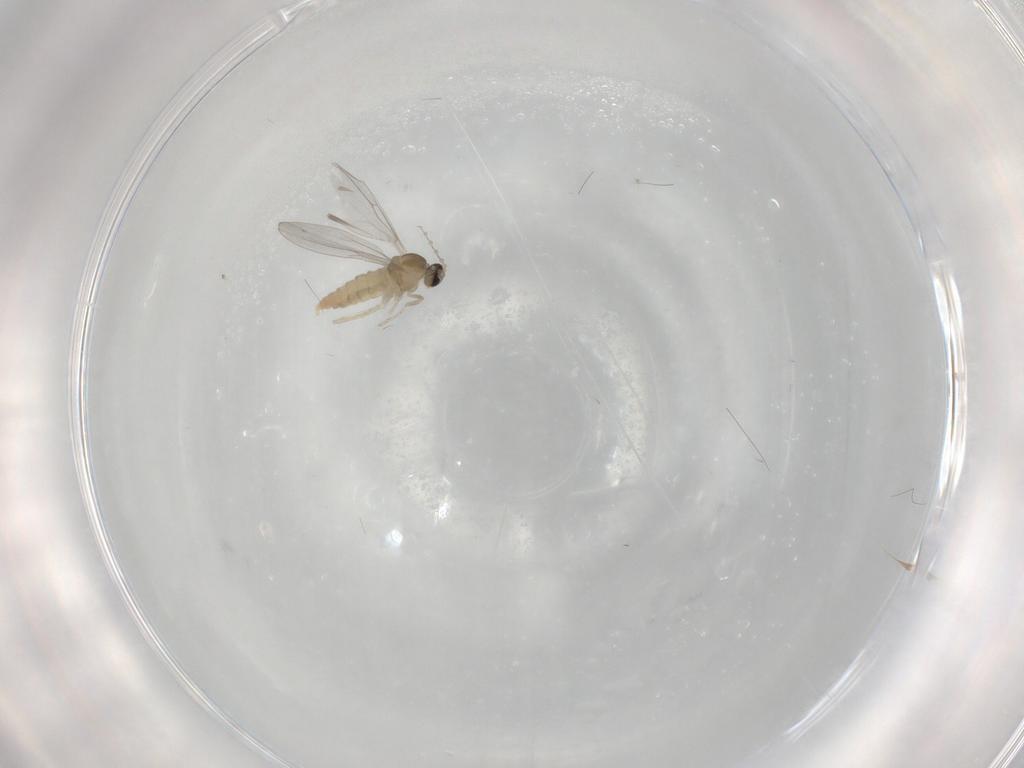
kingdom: Animalia
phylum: Arthropoda
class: Insecta
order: Diptera
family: Cecidomyiidae
